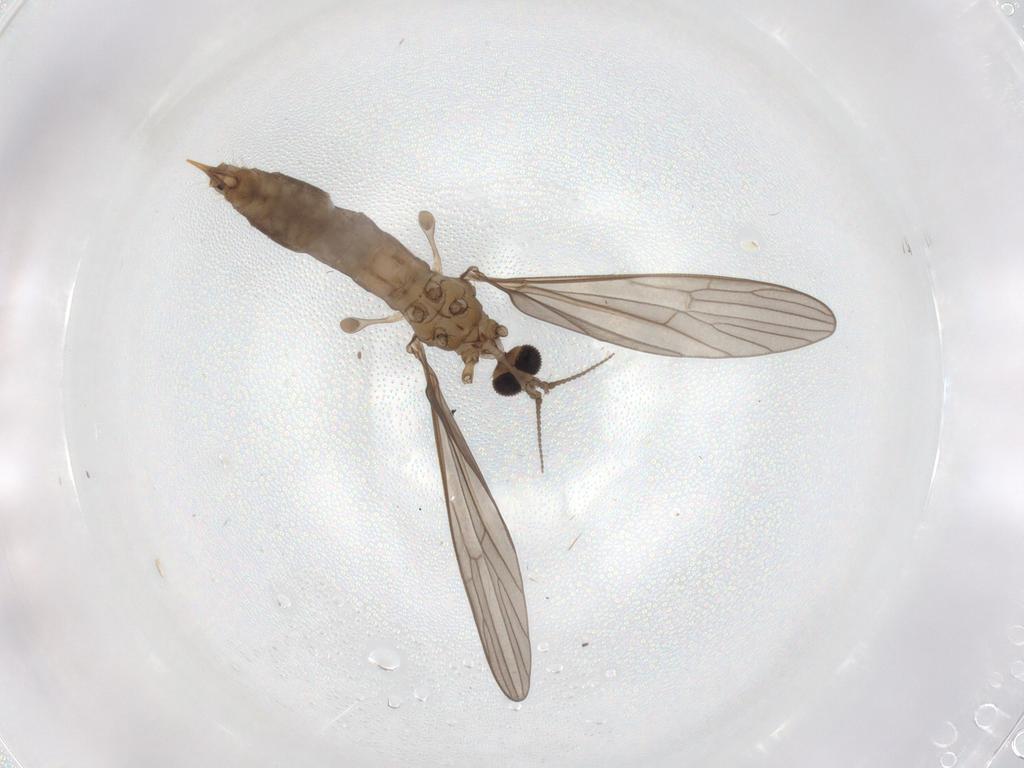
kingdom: Animalia
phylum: Arthropoda
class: Insecta
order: Diptera
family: Limoniidae
